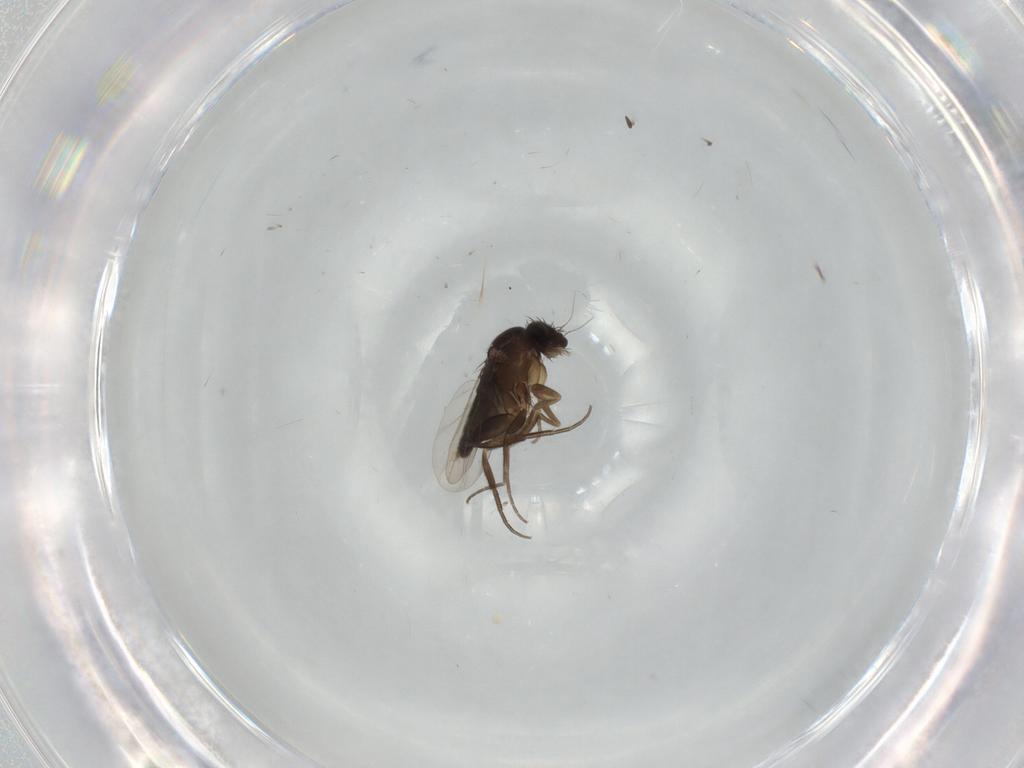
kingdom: Animalia
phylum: Arthropoda
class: Insecta
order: Diptera
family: Phoridae
